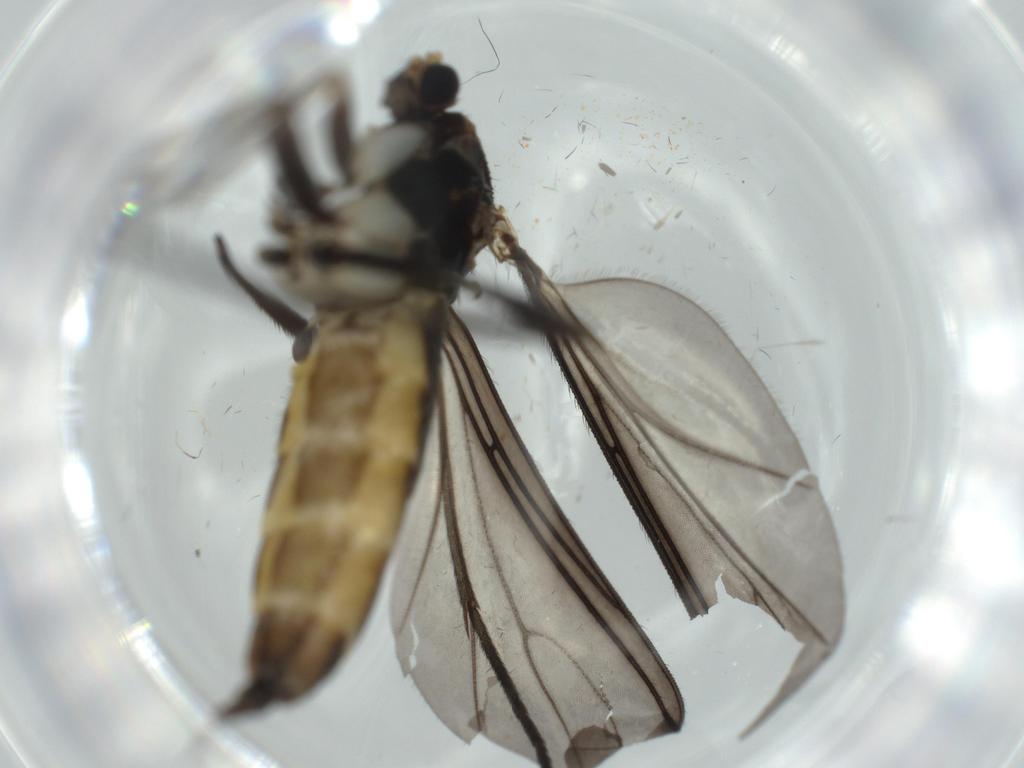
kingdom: Animalia
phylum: Arthropoda
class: Insecta
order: Diptera
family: Sciaridae
